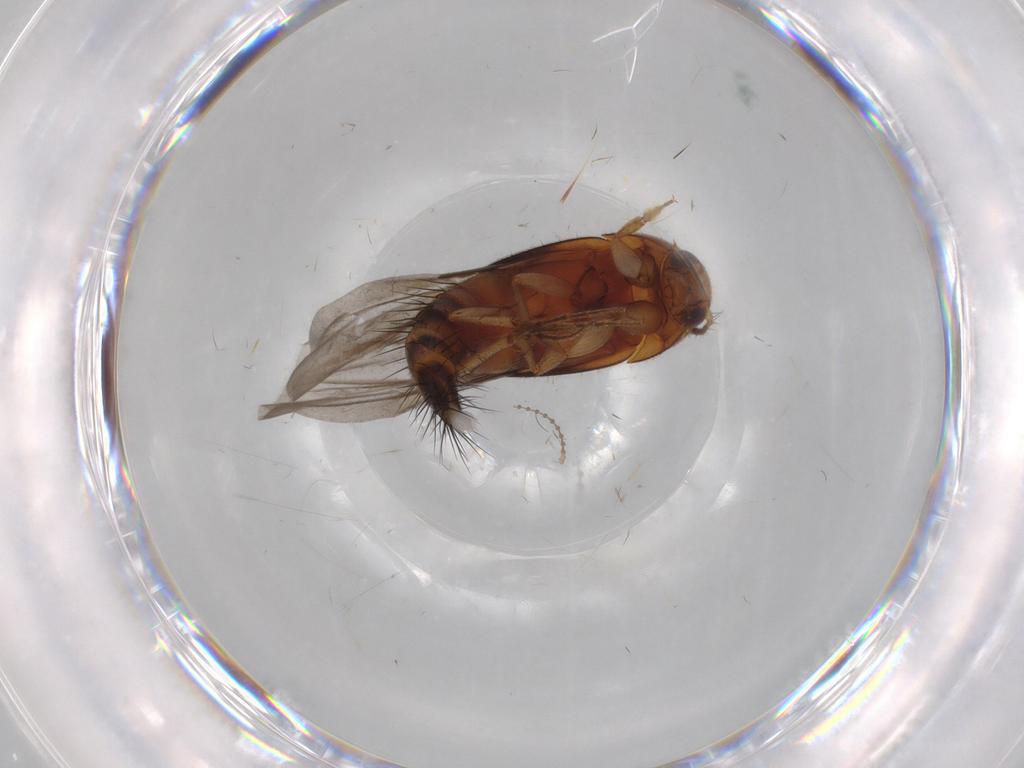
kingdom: Animalia
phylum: Arthropoda
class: Insecta
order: Coleoptera
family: Staphylinidae
